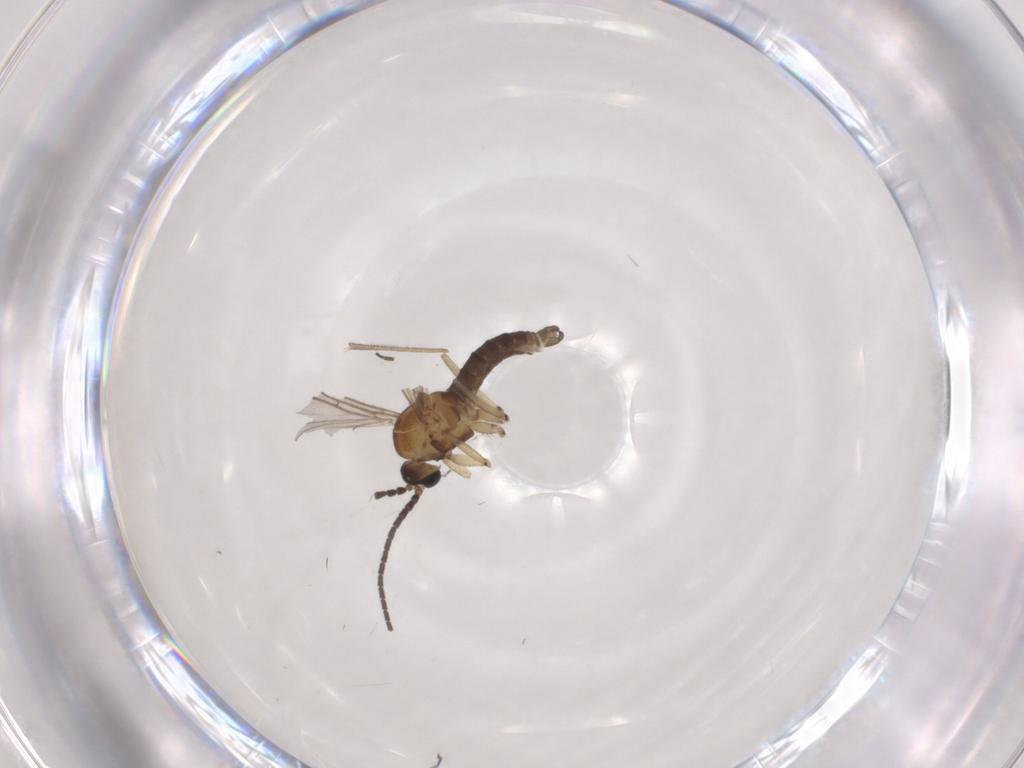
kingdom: Animalia
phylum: Arthropoda
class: Insecta
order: Diptera
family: Sciaridae
